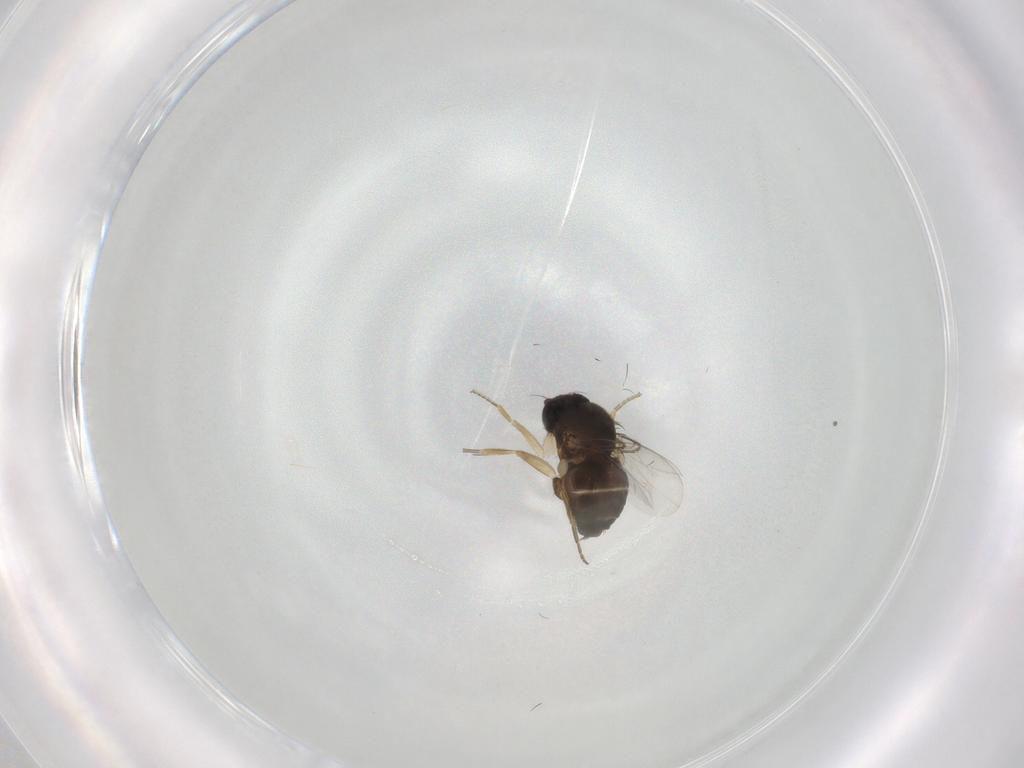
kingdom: Animalia
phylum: Arthropoda
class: Insecta
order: Diptera
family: Phoridae
